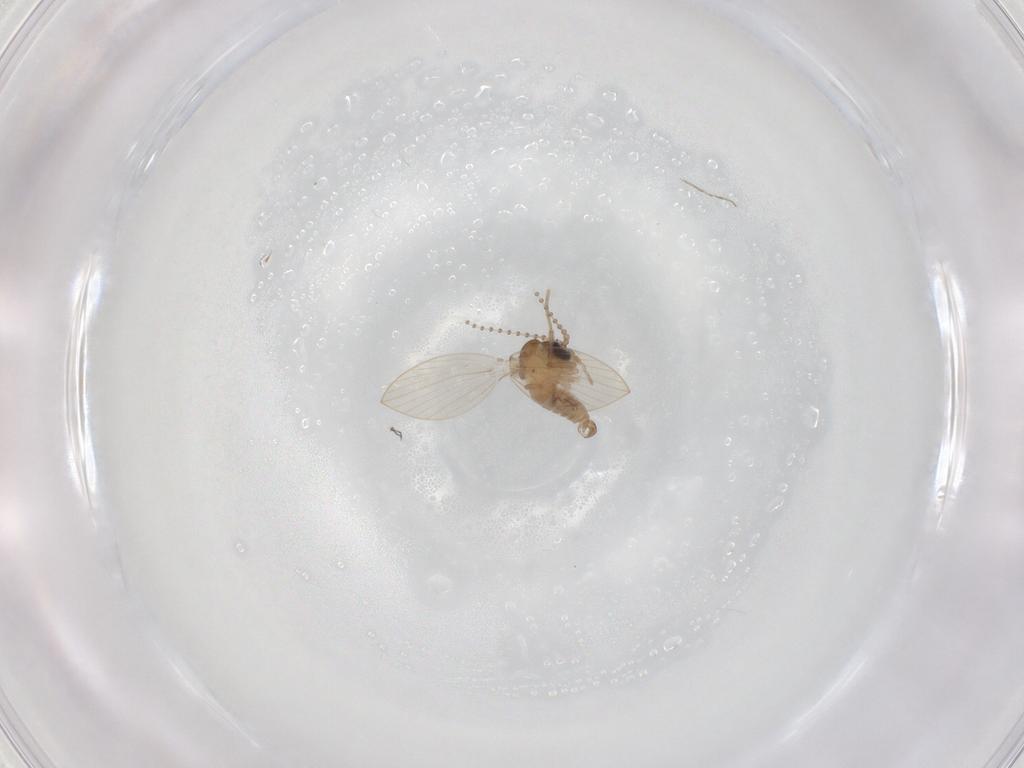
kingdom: Animalia
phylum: Arthropoda
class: Insecta
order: Diptera
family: Psychodidae
